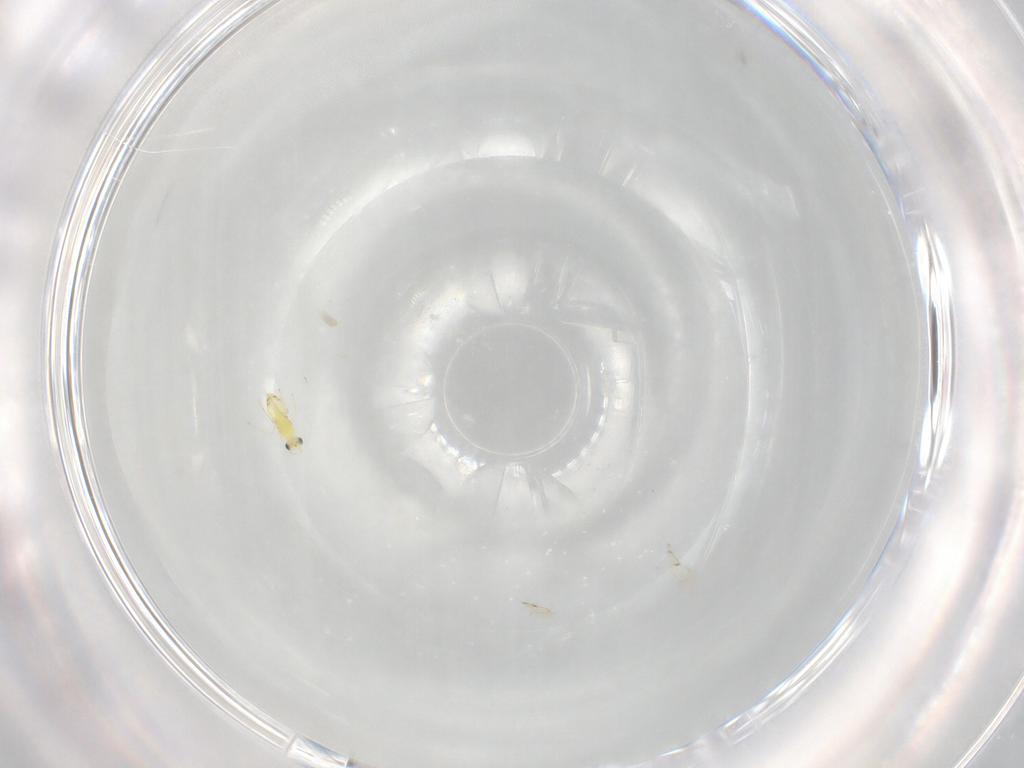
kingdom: Animalia
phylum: Arthropoda
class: Insecta
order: Hymenoptera
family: Trichogrammatidae
